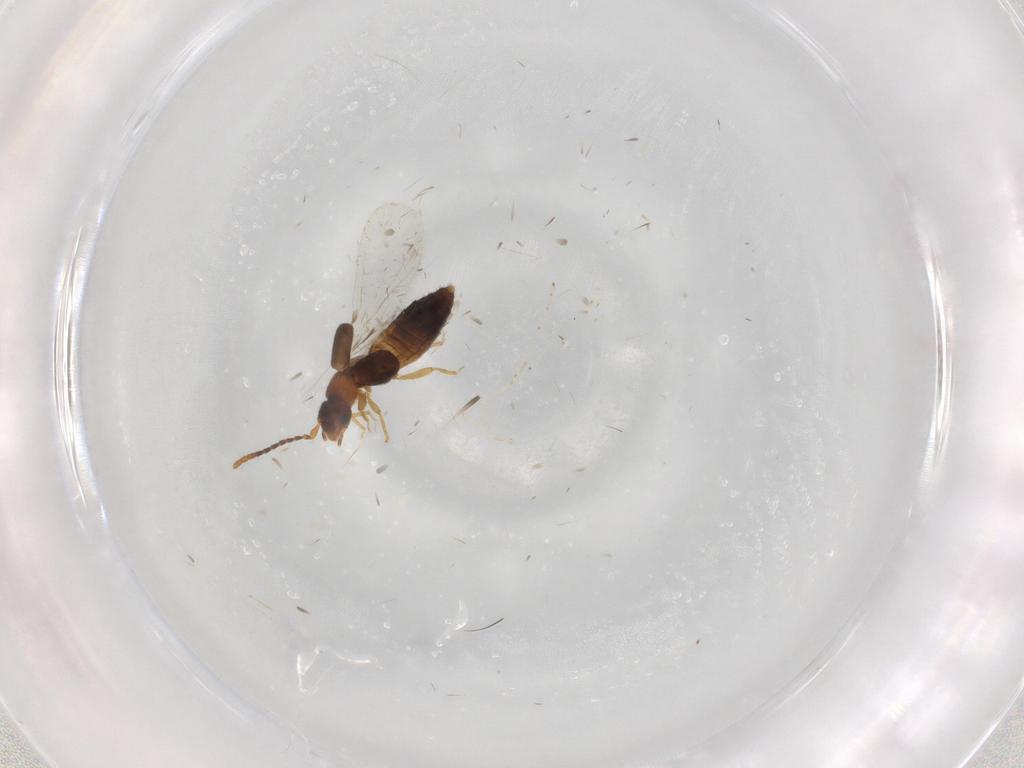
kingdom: Animalia
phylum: Arthropoda
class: Insecta
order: Coleoptera
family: Staphylinidae
